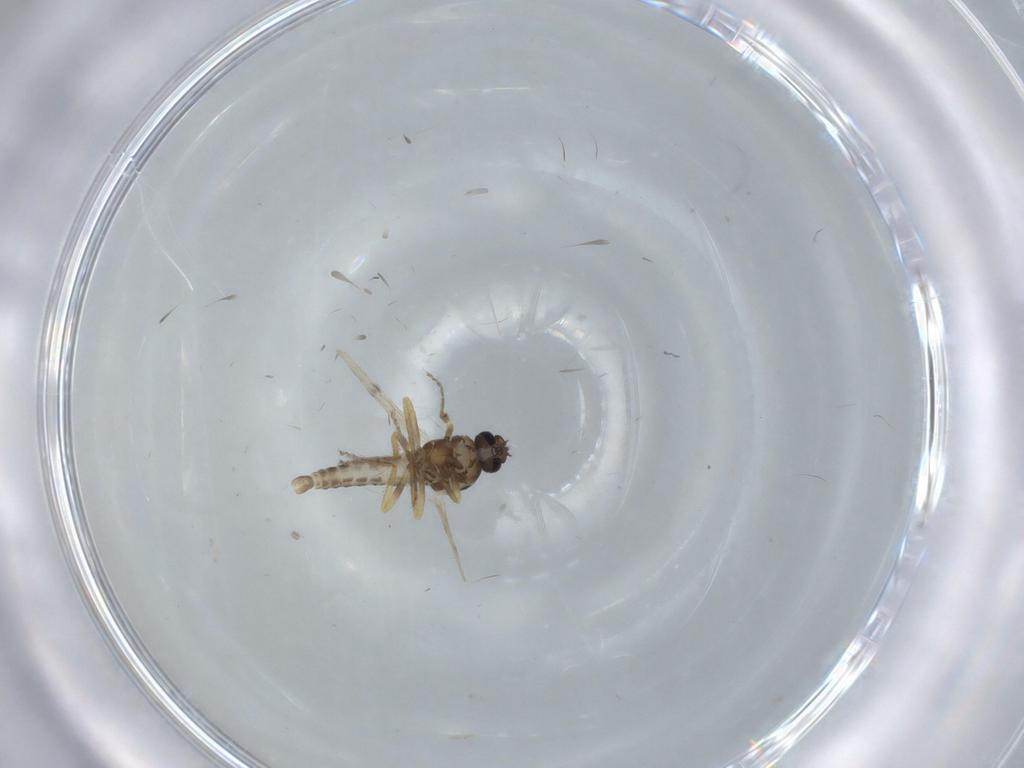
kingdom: Animalia
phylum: Arthropoda
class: Insecta
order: Diptera
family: Ceratopogonidae
